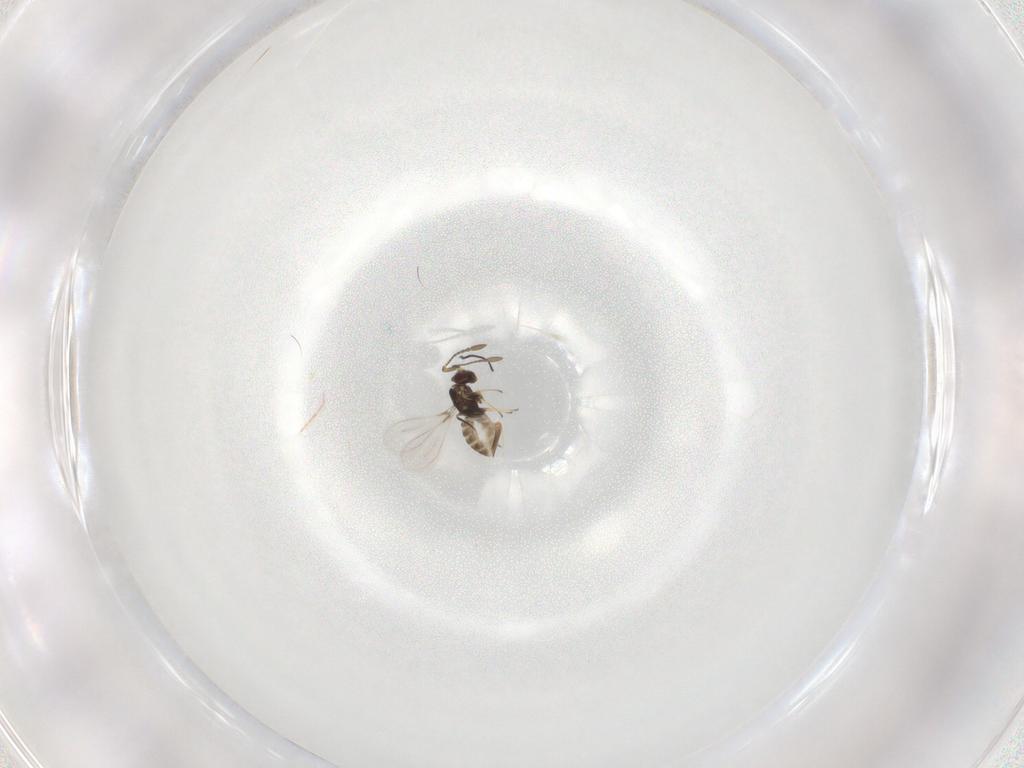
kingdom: Animalia
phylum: Arthropoda
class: Insecta
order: Hymenoptera
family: Mymaridae
